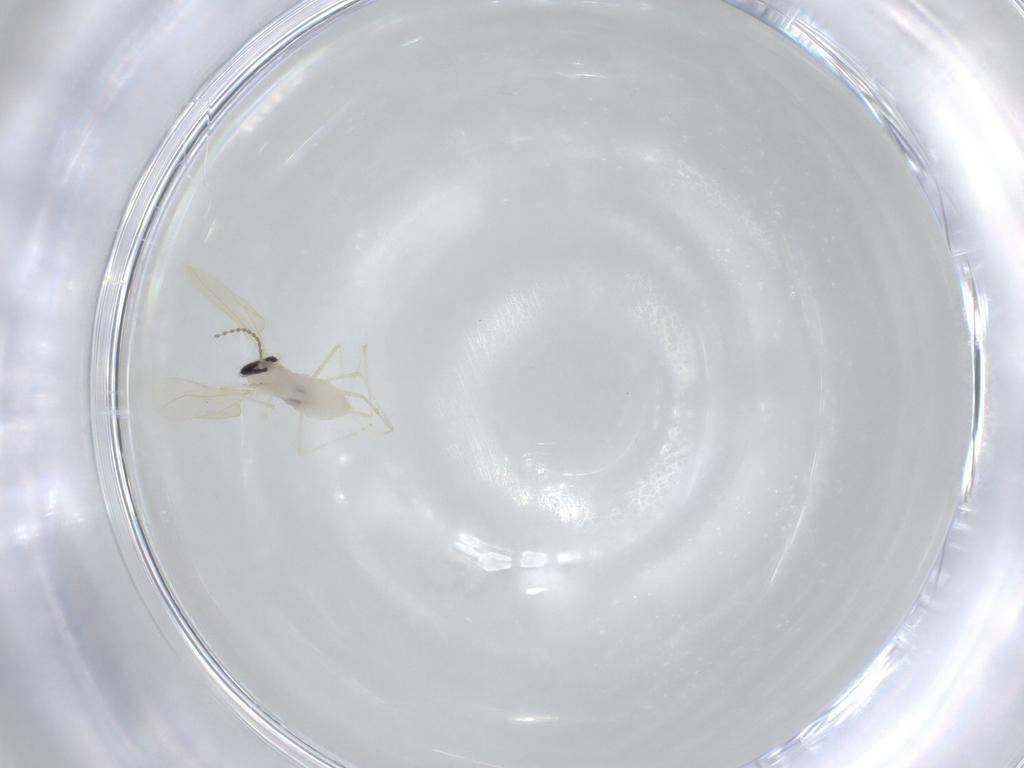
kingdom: Animalia
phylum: Arthropoda
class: Insecta
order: Diptera
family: Cecidomyiidae
